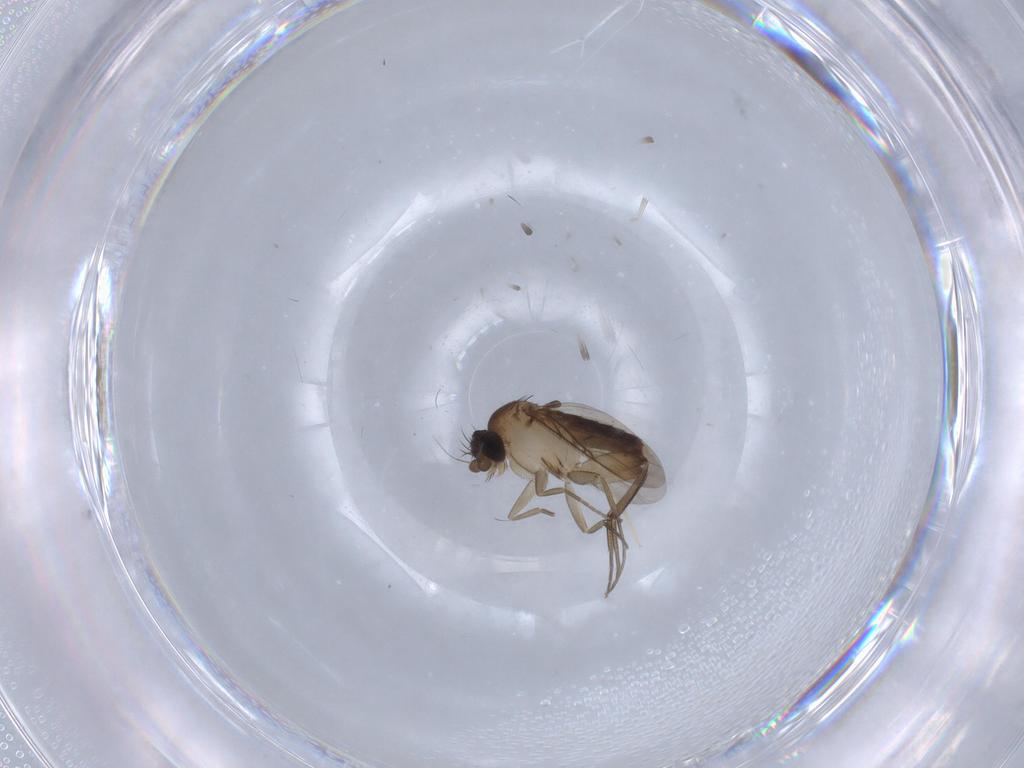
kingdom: Animalia
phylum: Arthropoda
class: Insecta
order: Diptera
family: Phoridae
